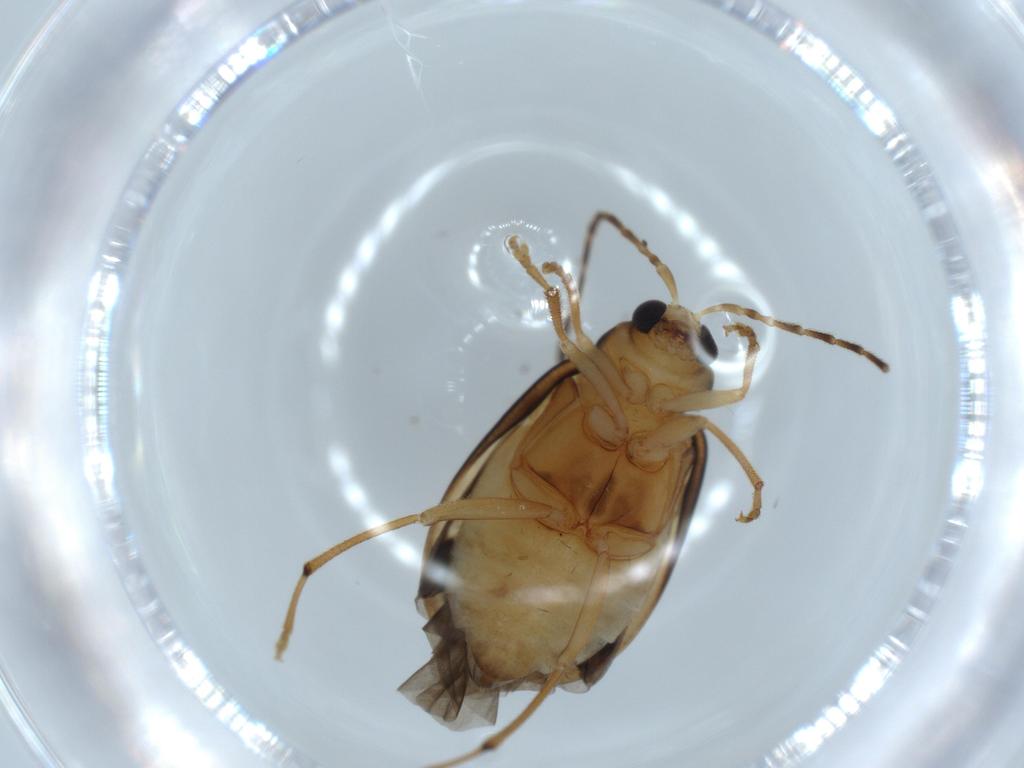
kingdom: Animalia
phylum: Arthropoda
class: Insecta
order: Coleoptera
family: Chrysomelidae
